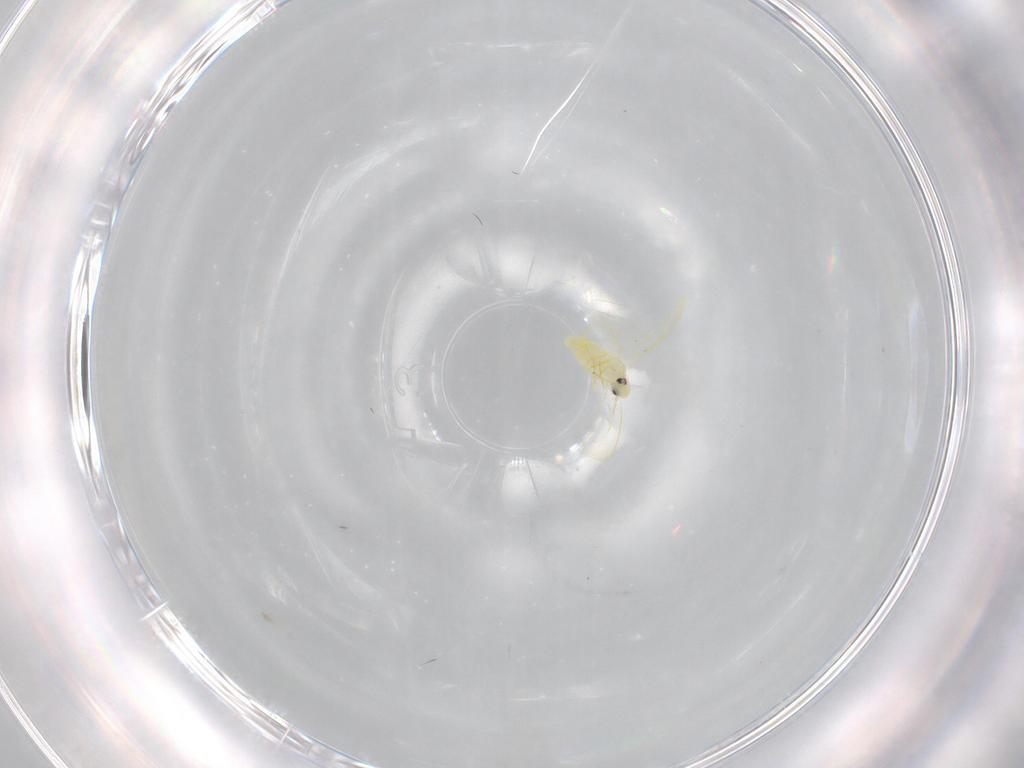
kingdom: Animalia
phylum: Arthropoda
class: Insecta
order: Hemiptera
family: Aleyrodidae
